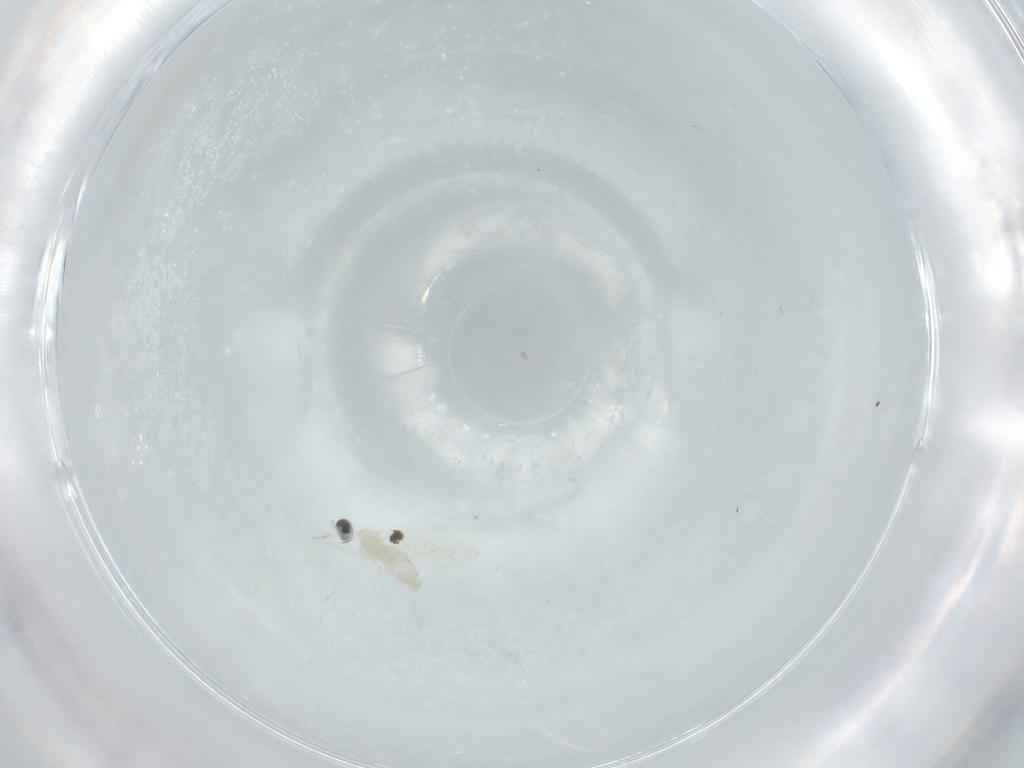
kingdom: Animalia
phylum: Arthropoda
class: Insecta
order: Diptera
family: Cecidomyiidae
